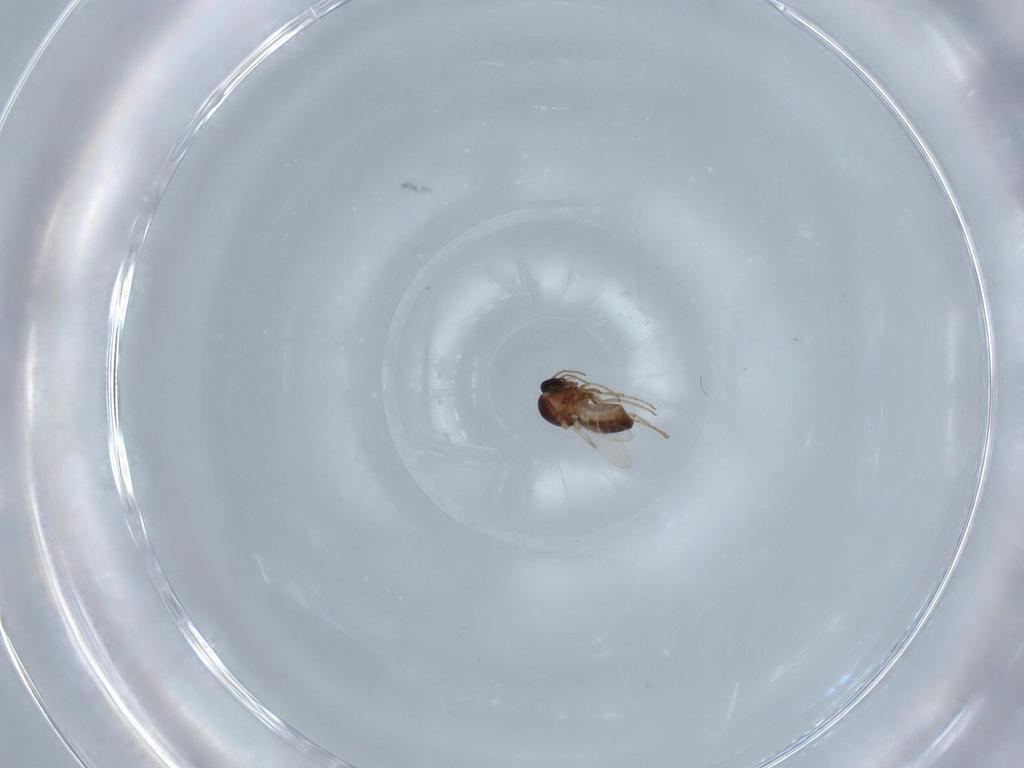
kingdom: Animalia
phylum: Arthropoda
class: Insecta
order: Diptera
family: Ceratopogonidae
